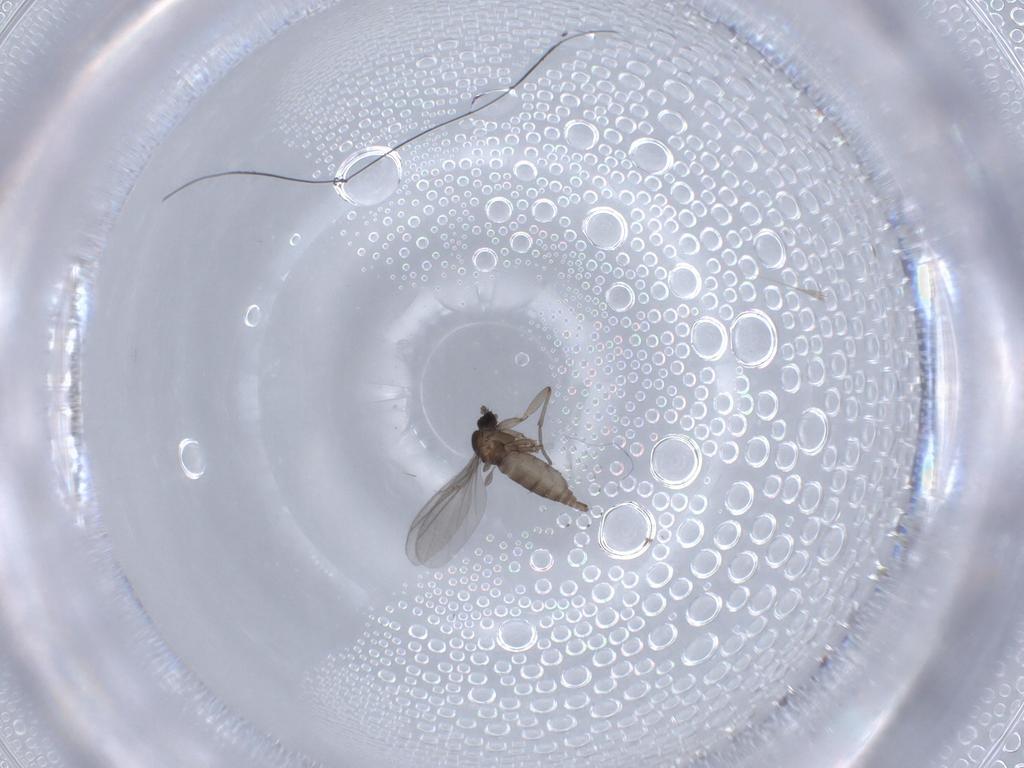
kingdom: Animalia
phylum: Arthropoda
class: Insecta
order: Diptera
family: Sciaridae
